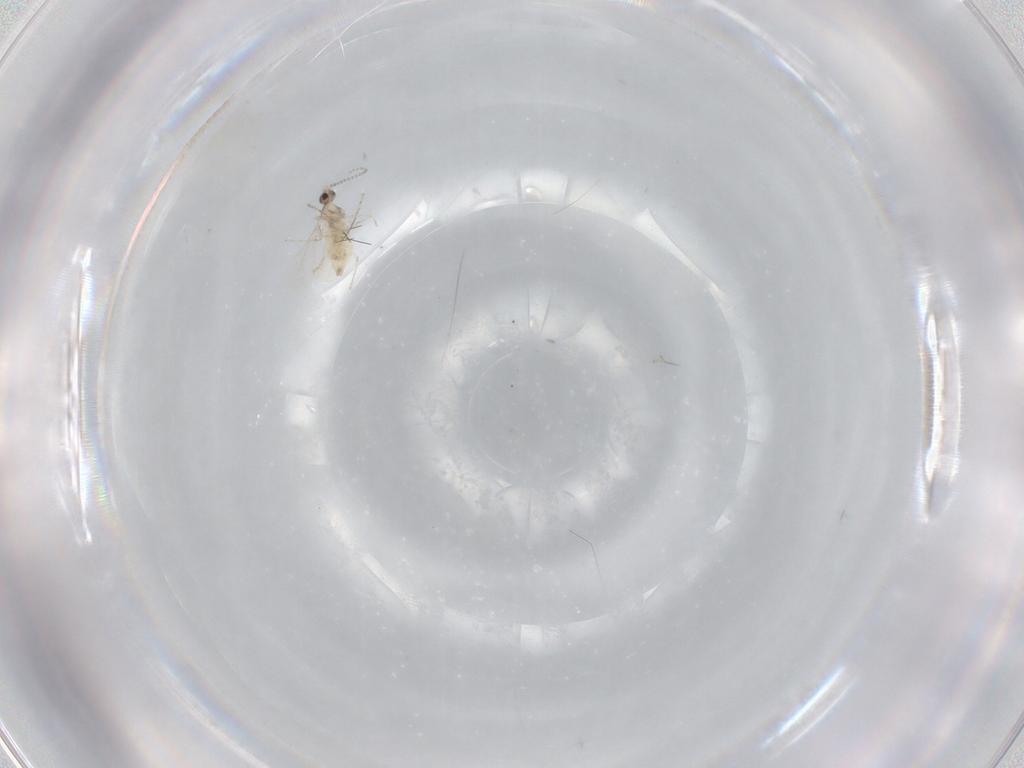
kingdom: Animalia
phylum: Arthropoda
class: Insecta
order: Diptera
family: Cecidomyiidae
